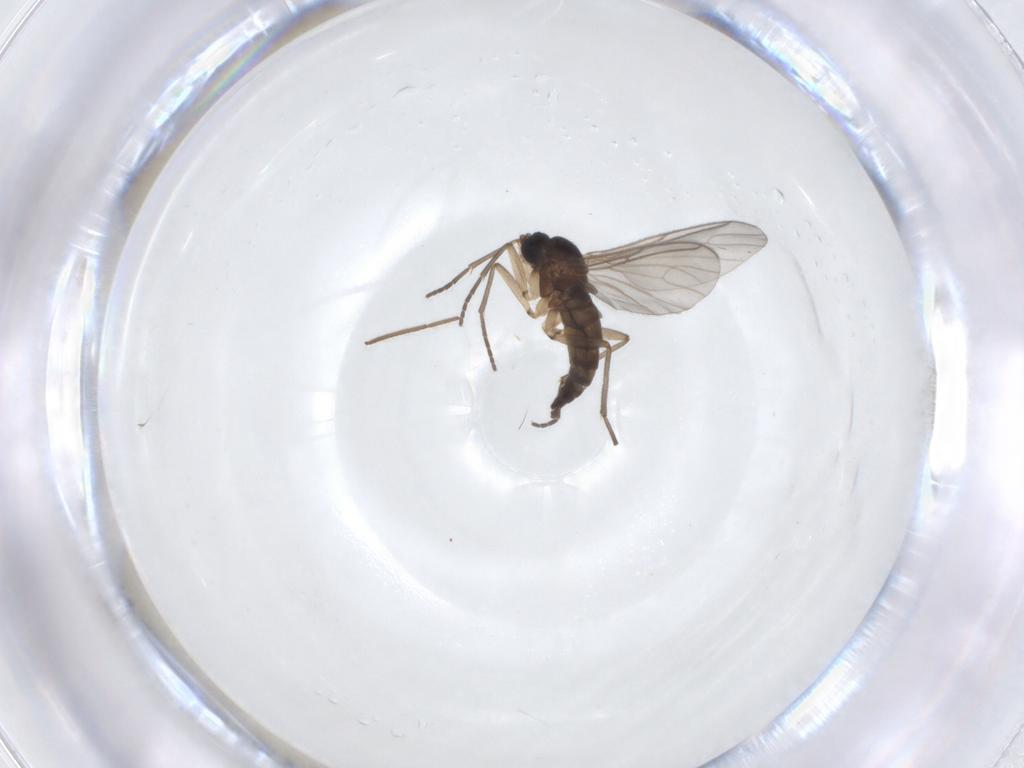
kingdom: Animalia
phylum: Arthropoda
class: Insecta
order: Diptera
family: Sciaridae
